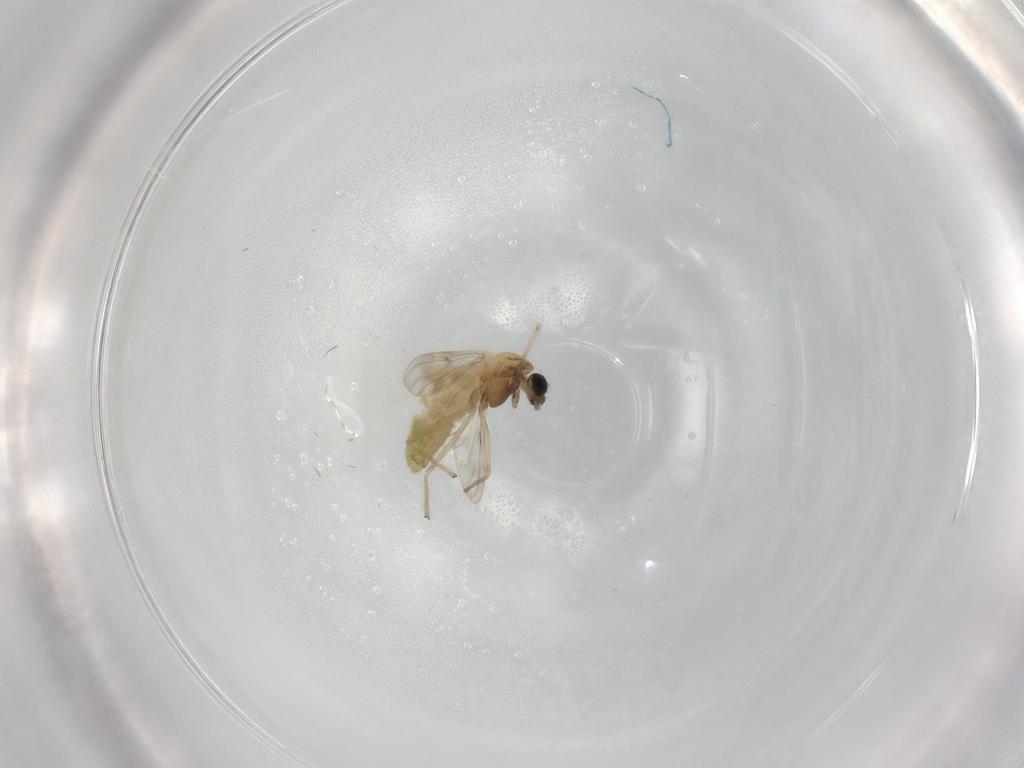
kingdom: Animalia
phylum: Arthropoda
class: Insecta
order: Diptera
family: Chironomidae
